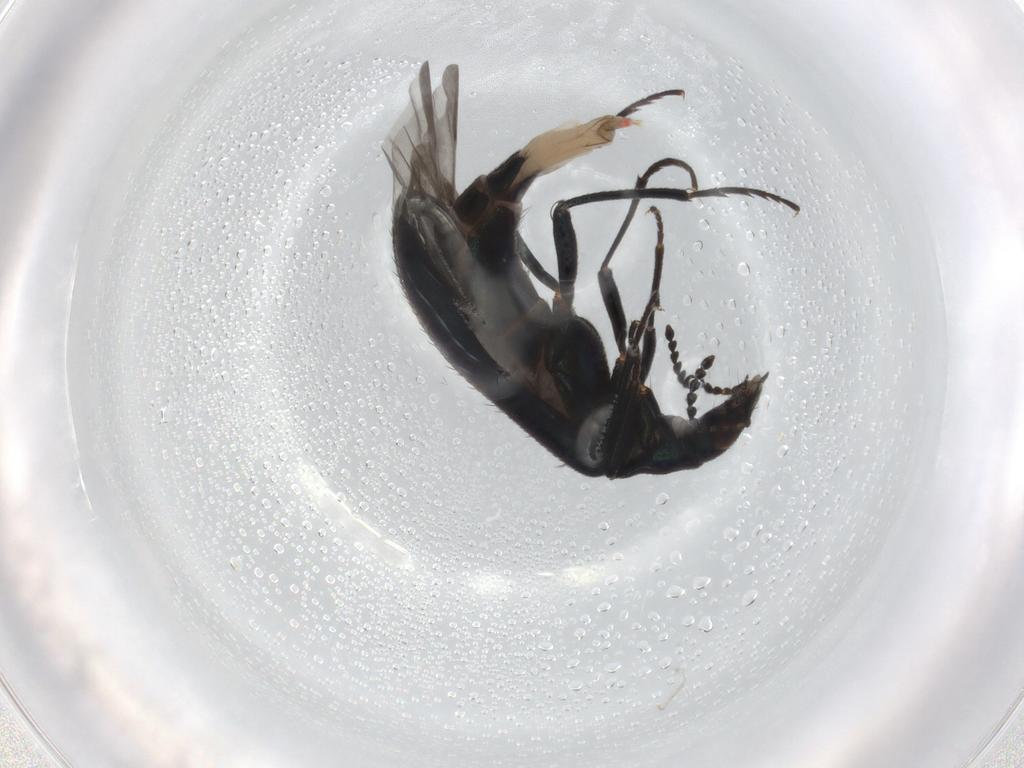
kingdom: Animalia
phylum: Arthropoda
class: Insecta
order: Coleoptera
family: Melyridae
